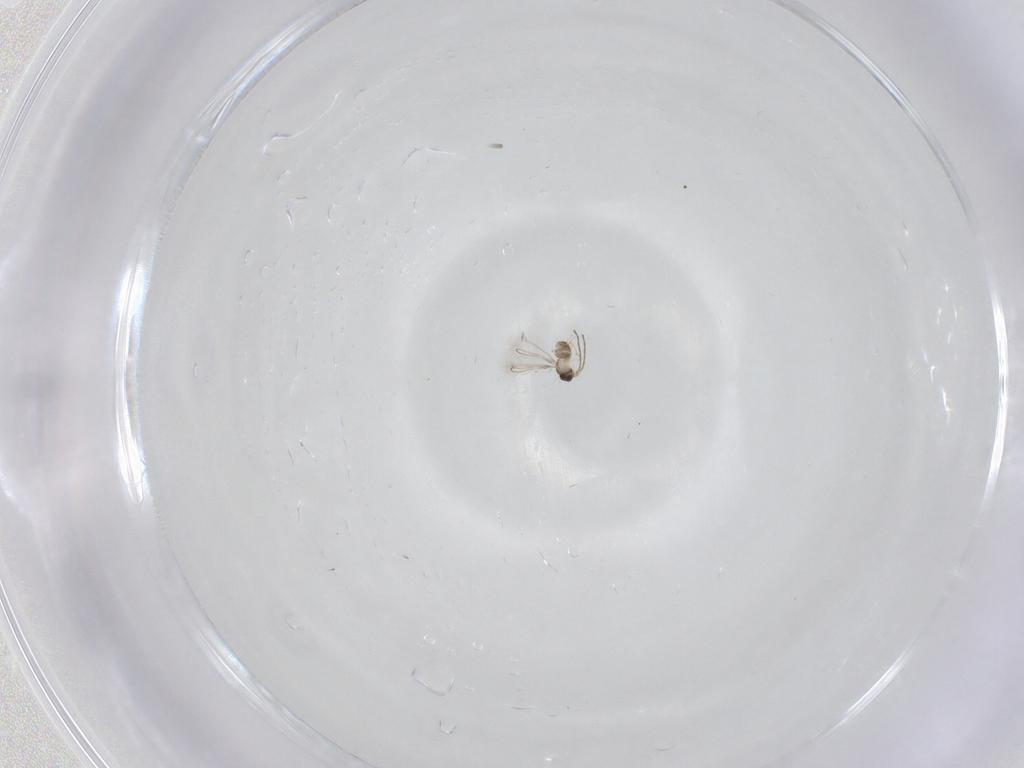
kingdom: Animalia
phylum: Arthropoda
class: Insecta
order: Hymenoptera
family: Mymaridae
